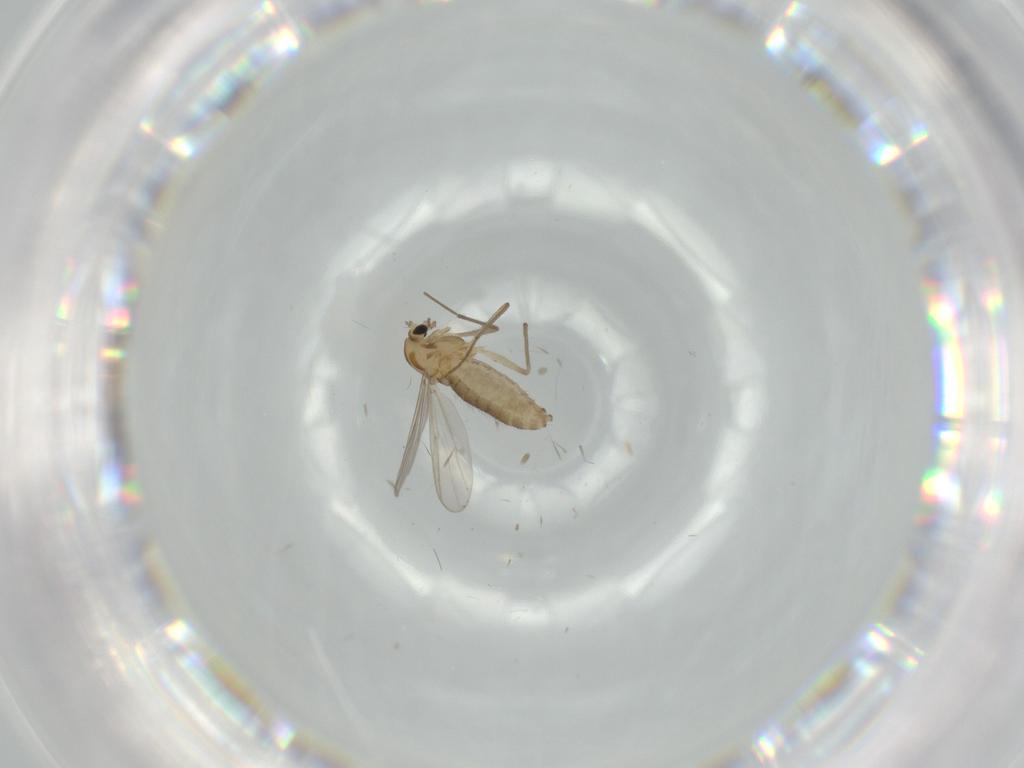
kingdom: Animalia
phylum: Arthropoda
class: Insecta
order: Diptera
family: Chironomidae
